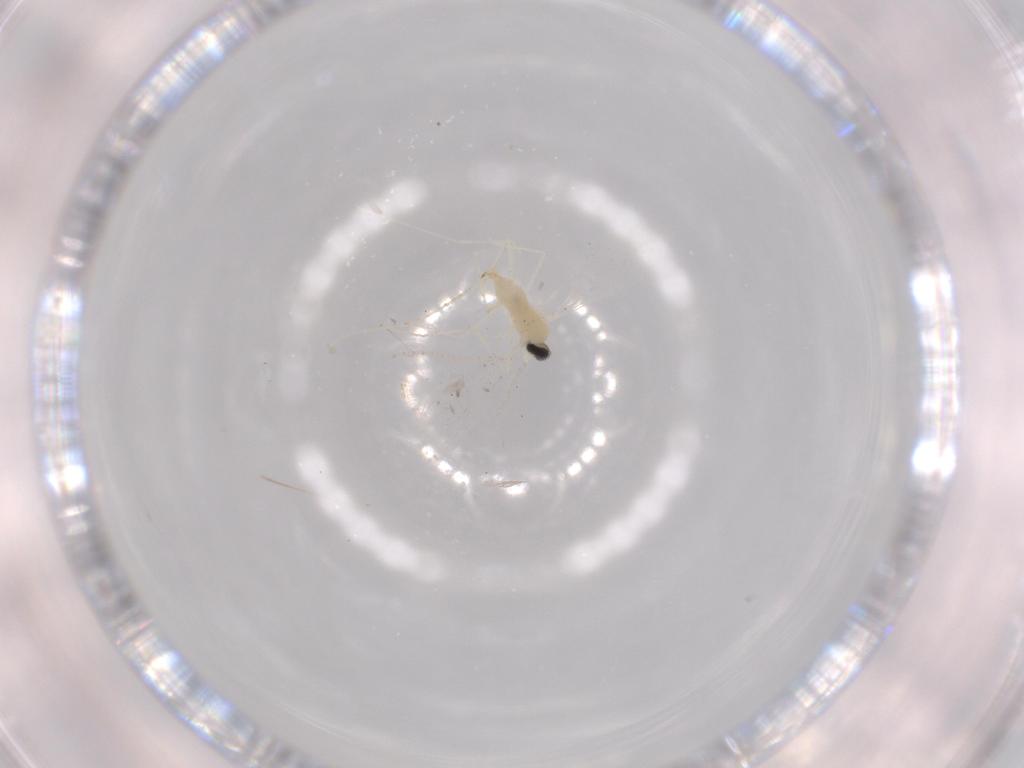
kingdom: Animalia
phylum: Arthropoda
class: Insecta
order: Diptera
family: Cecidomyiidae
